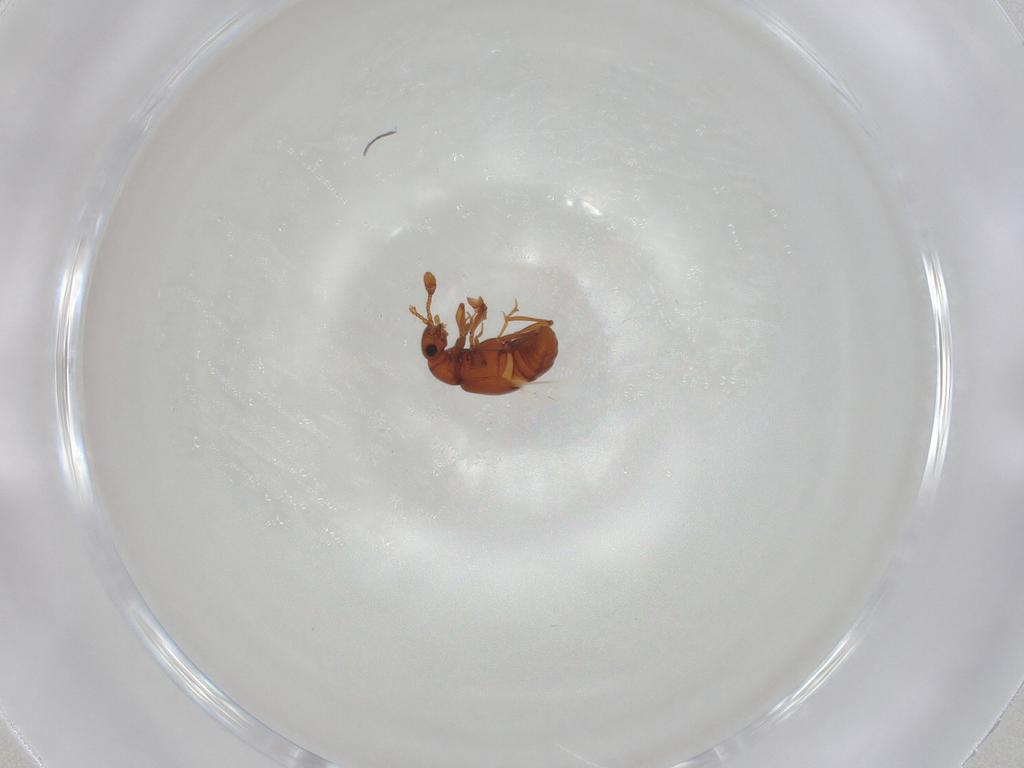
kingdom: Animalia
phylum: Arthropoda
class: Insecta
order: Coleoptera
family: Staphylinidae
